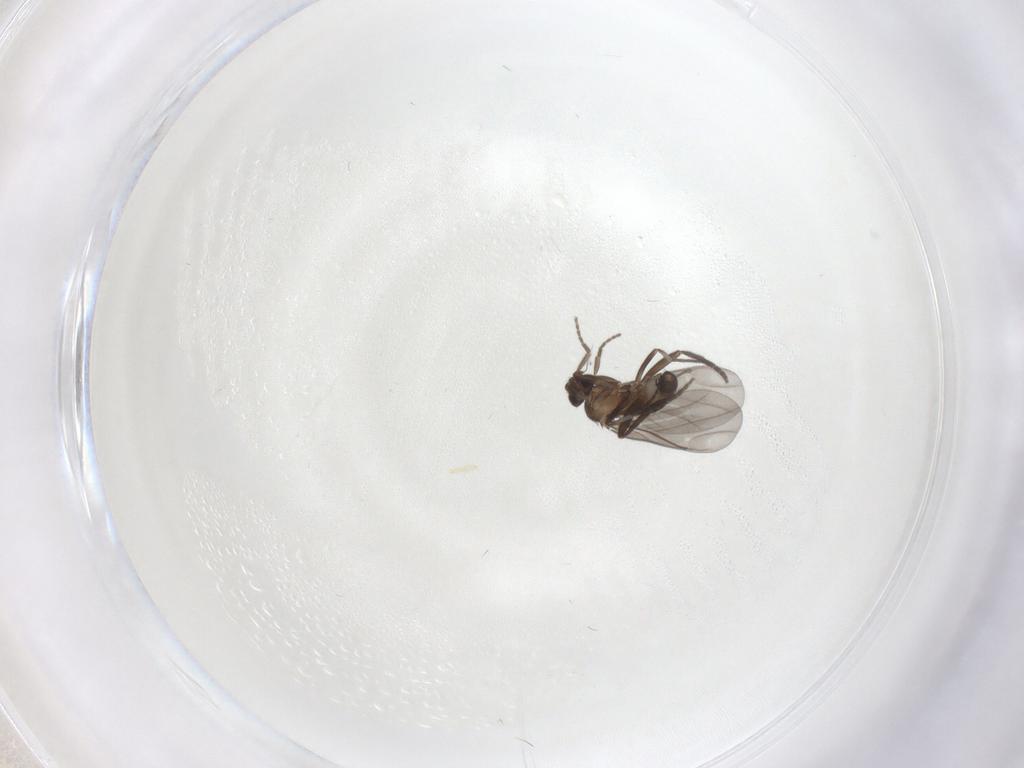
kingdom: Animalia
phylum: Arthropoda
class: Insecta
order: Diptera
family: Phoridae
